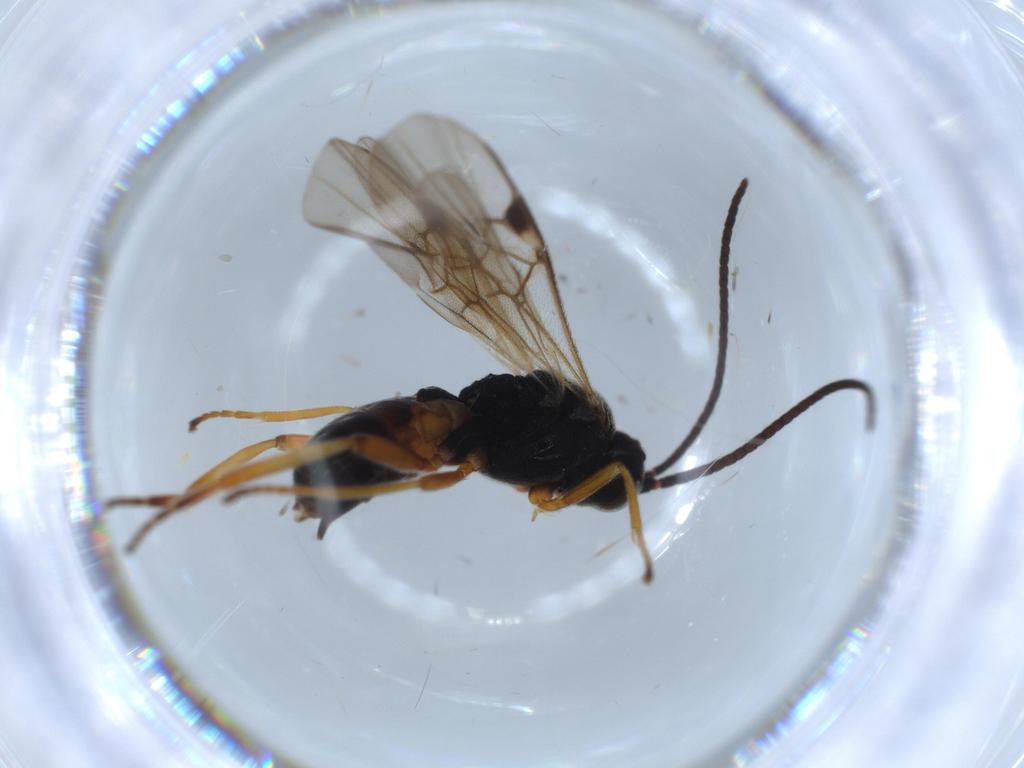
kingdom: Animalia
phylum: Arthropoda
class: Insecta
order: Hymenoptera
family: Braconidae
